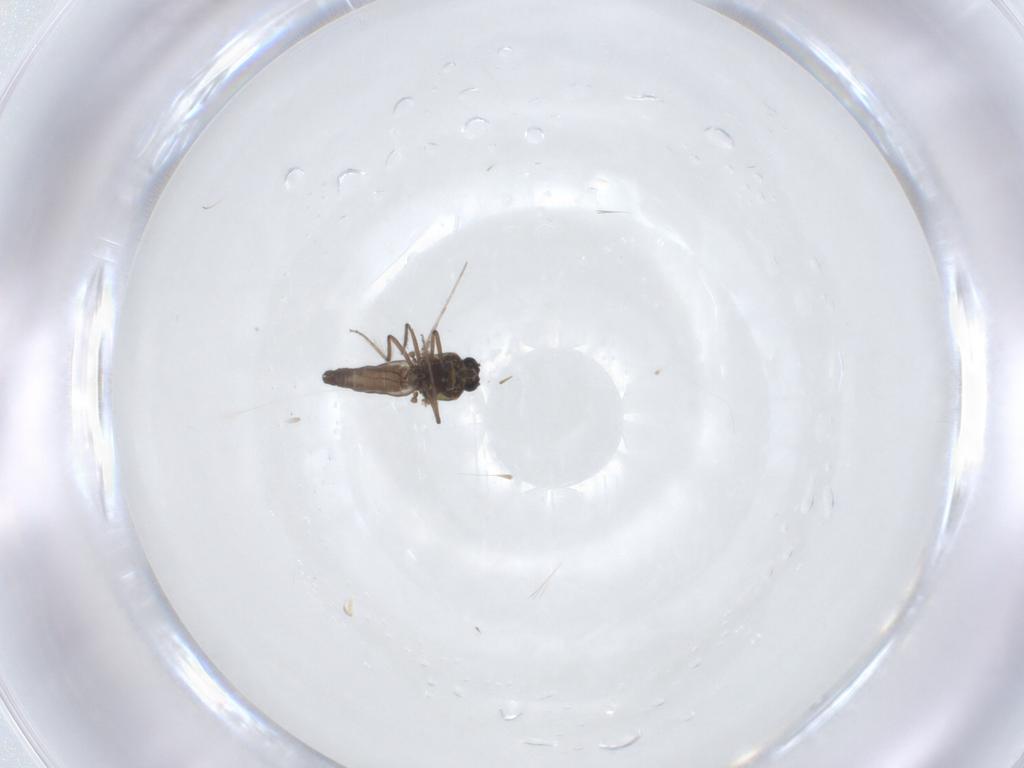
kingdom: Animalia
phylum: Arthropoda
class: Insecta
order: Diptera
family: Ceratopogonidae
